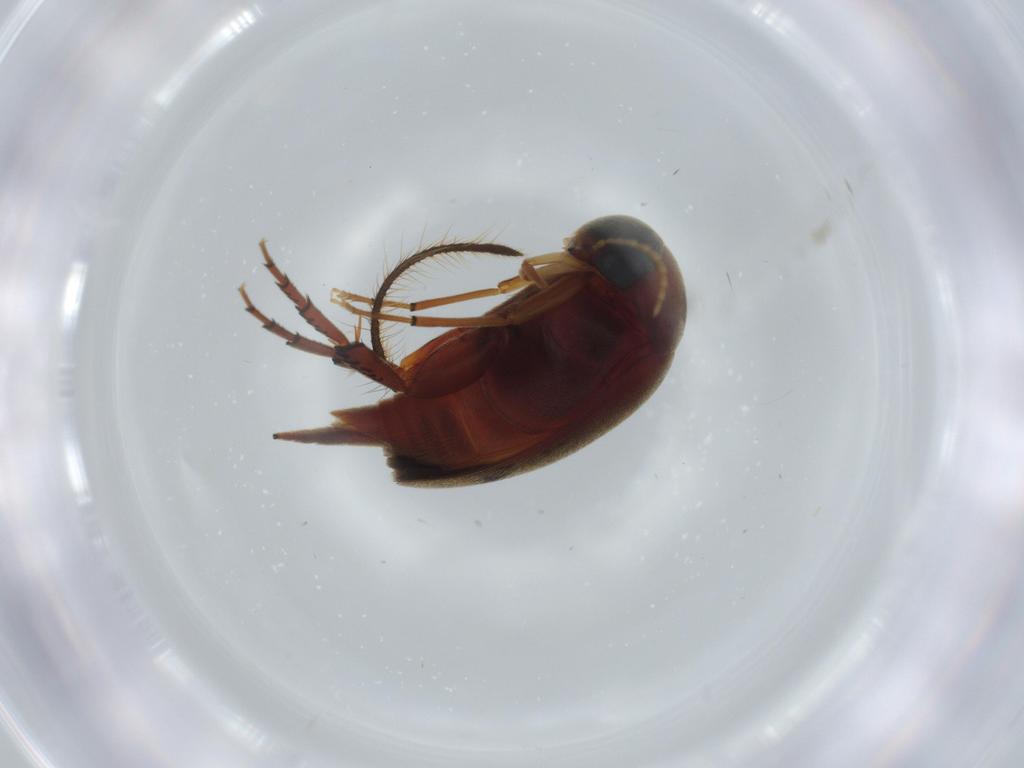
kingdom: Animalia
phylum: Arthropoda
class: Insecta
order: Coleoptera
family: Phengodidae
